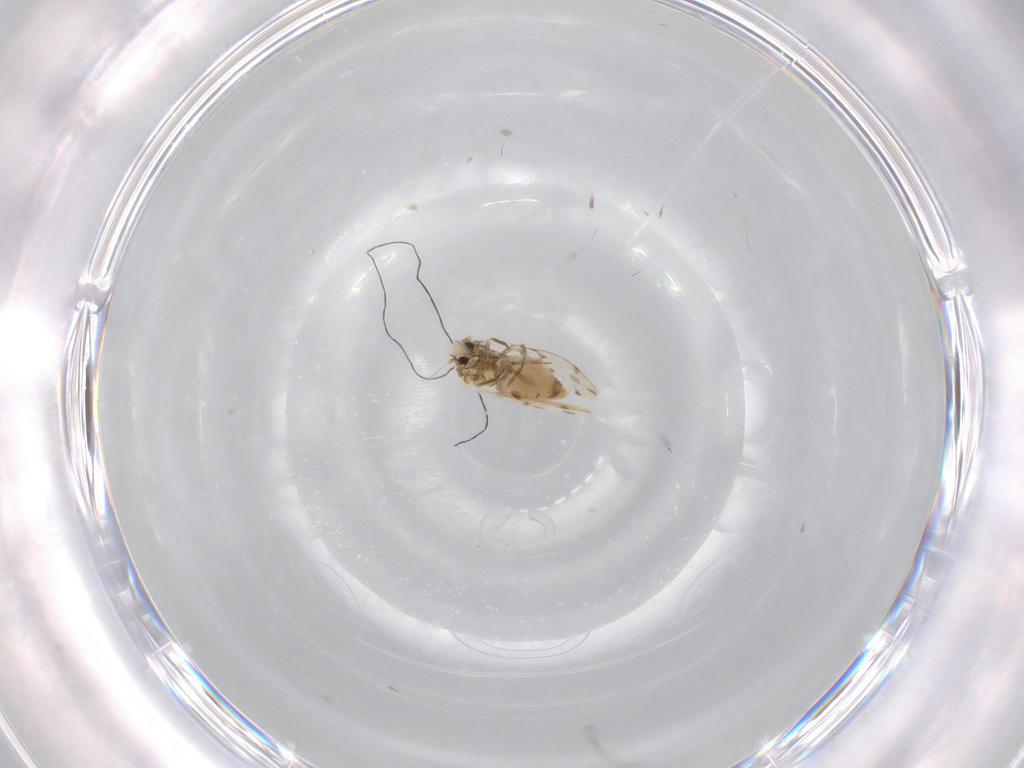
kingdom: Animalia
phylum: Arthropoda
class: Insecta
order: Hemiptera
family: Aleyrodidae
